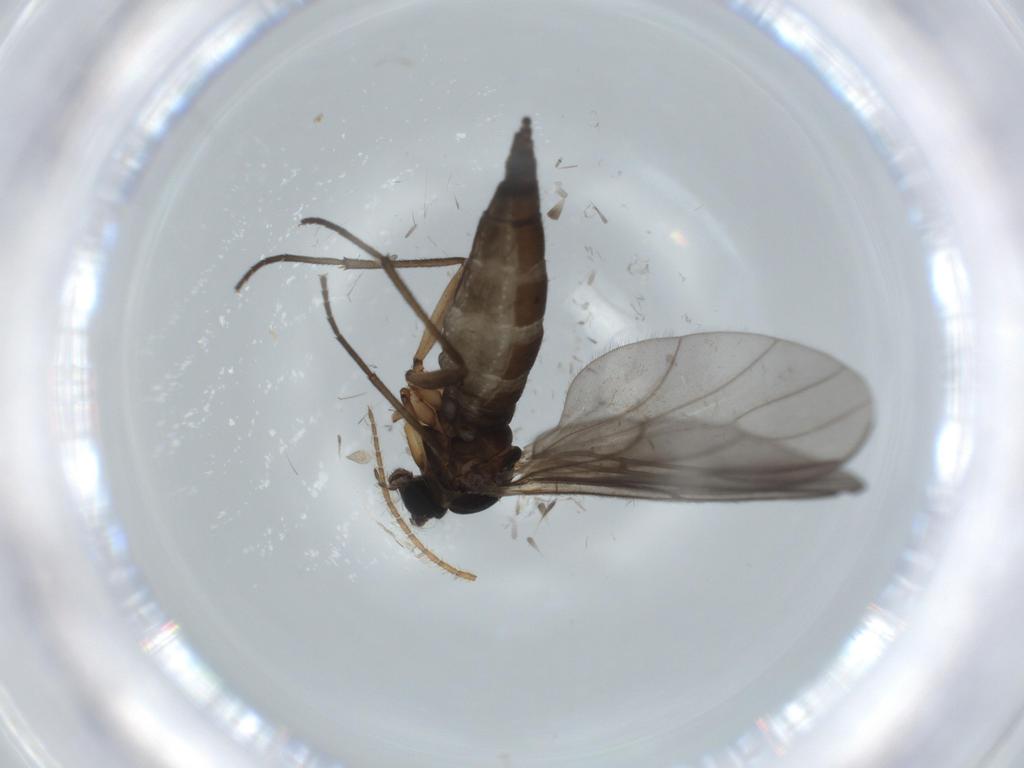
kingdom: Animalia
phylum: Arthropoda
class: Insecta
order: Diptera
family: Sciaridae
